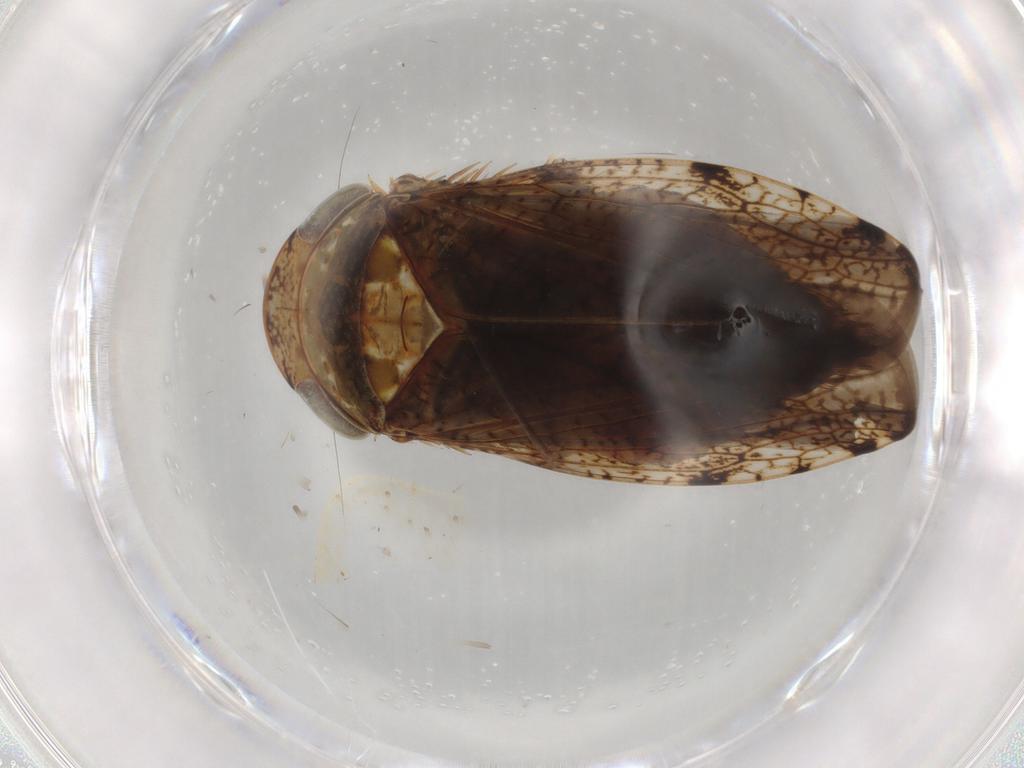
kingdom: Animalia
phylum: Arthropoda
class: Insecta
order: Hemiptera
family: Cicadellidae
